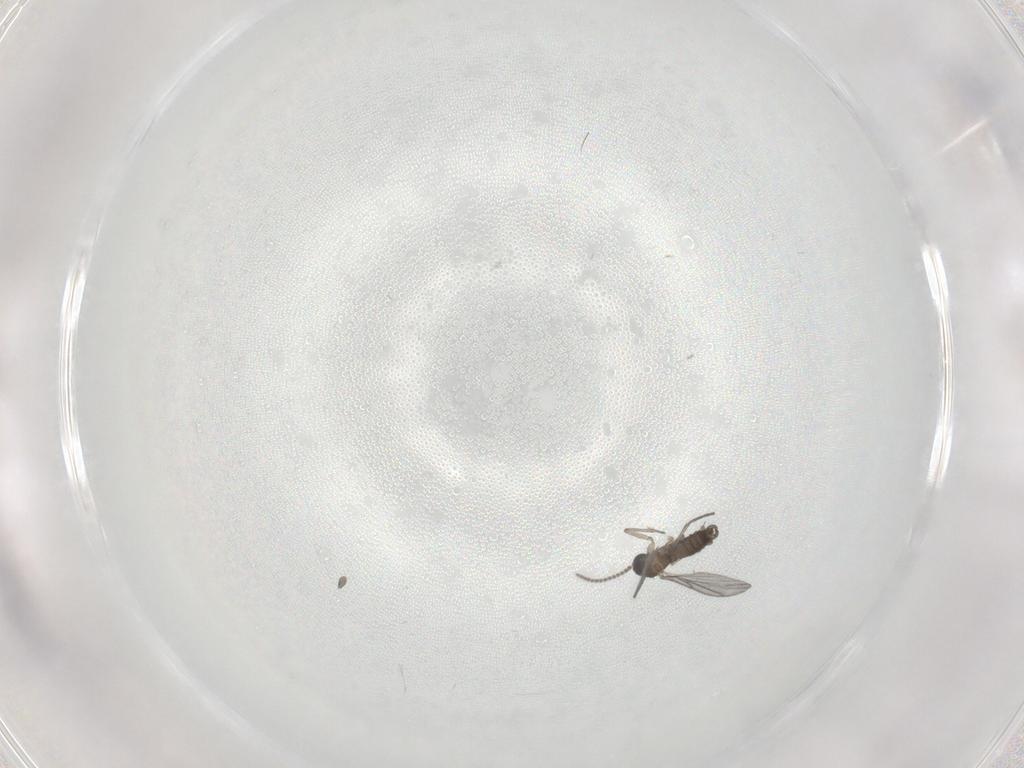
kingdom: Animalia
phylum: Arthropoda
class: Insecta
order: Diptera
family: Sciaridae
